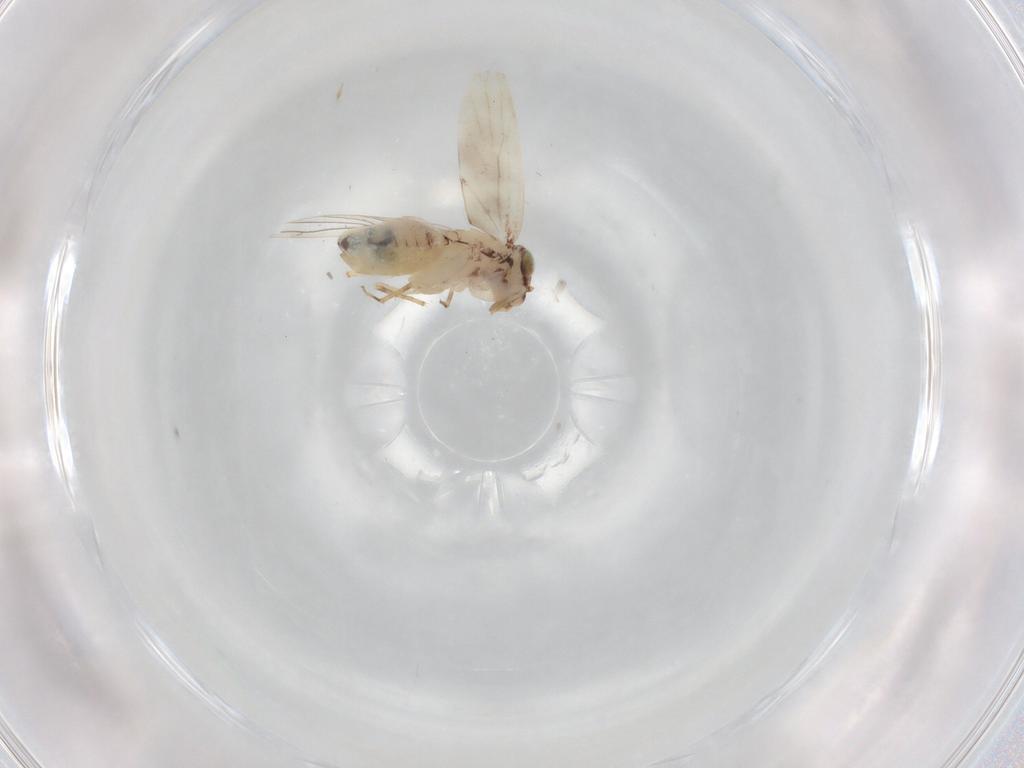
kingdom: Animalia
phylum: Arthropoda
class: Insecta
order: Psocodea
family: Lepidopsocidae
